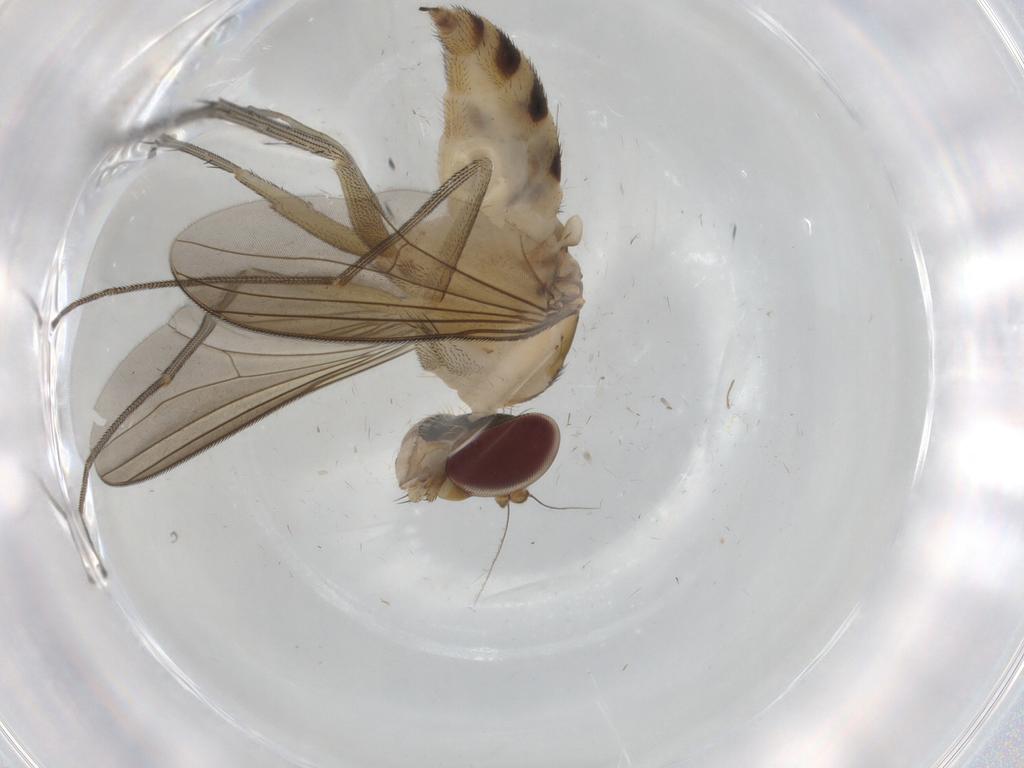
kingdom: Animalia
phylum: Arthropoda
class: Insecta
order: Diptera
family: Dolichopodidae
